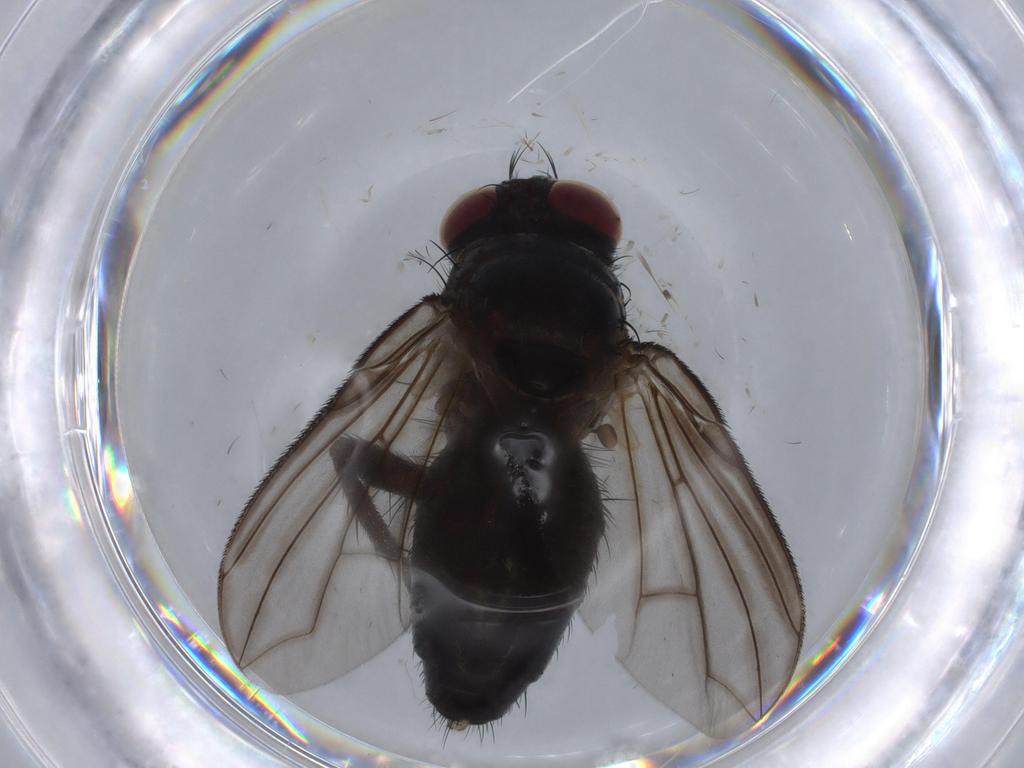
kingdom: Animalia
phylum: Arthropoda
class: Insecta
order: Diptera
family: Calliphoridae
